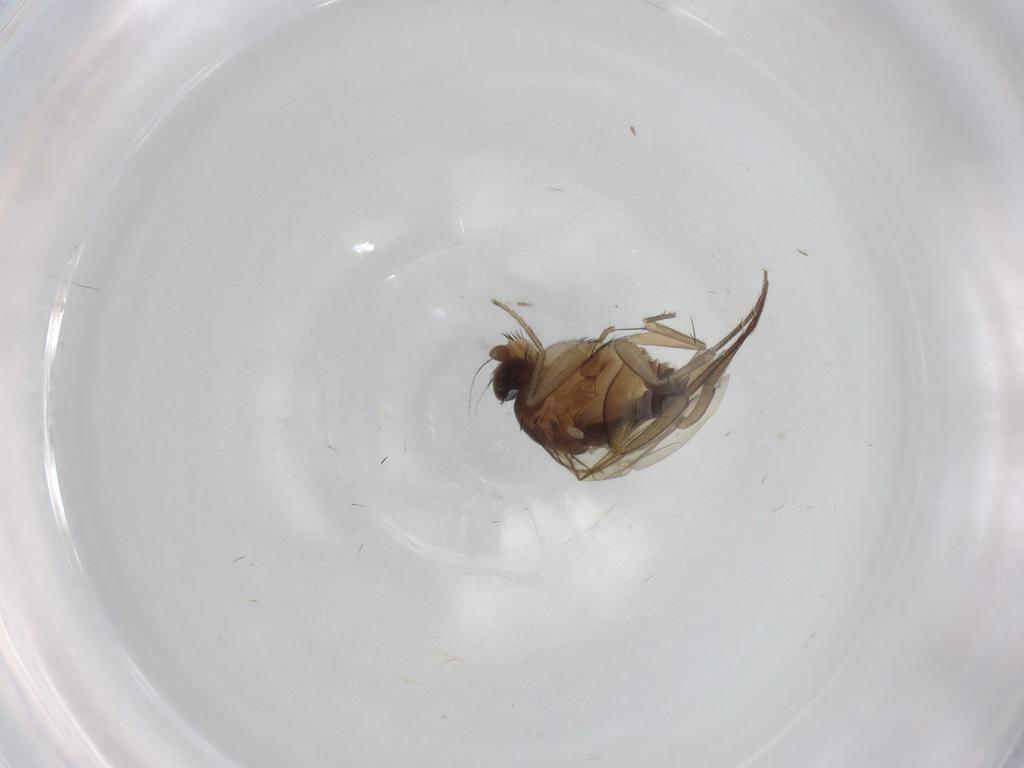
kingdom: Animalia
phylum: Arthropoda
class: Insecta
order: Diptera
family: Phoridae
